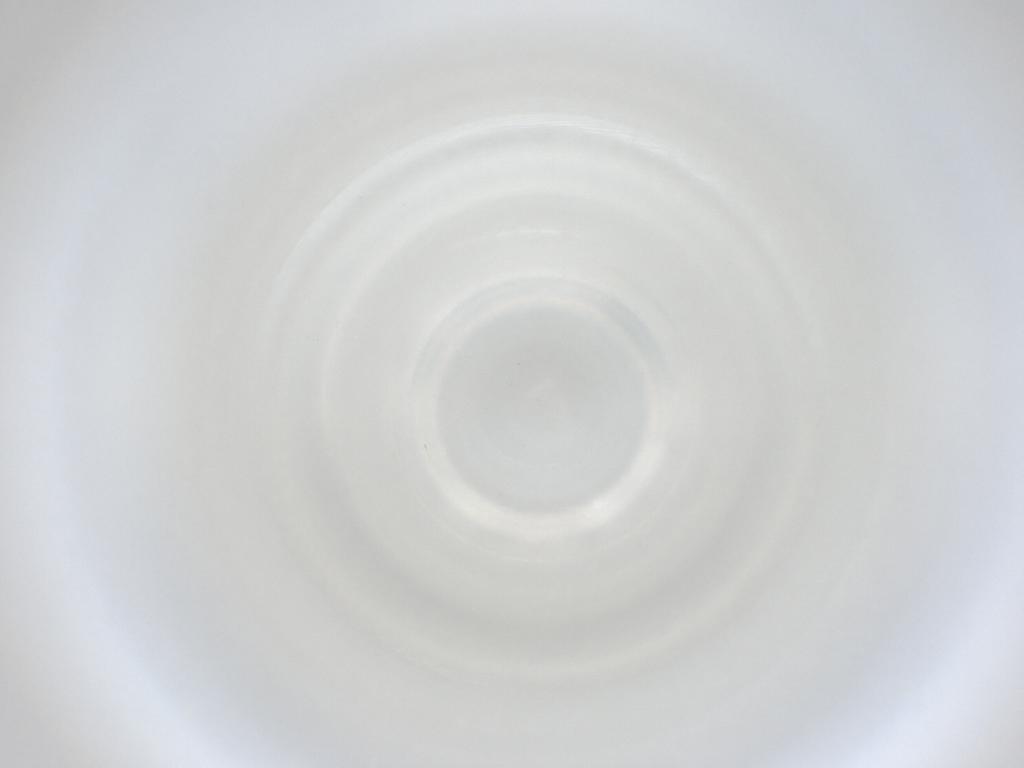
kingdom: Animalia
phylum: Arthropoda
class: Insecta
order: Diptera
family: Cecidomyiidae
